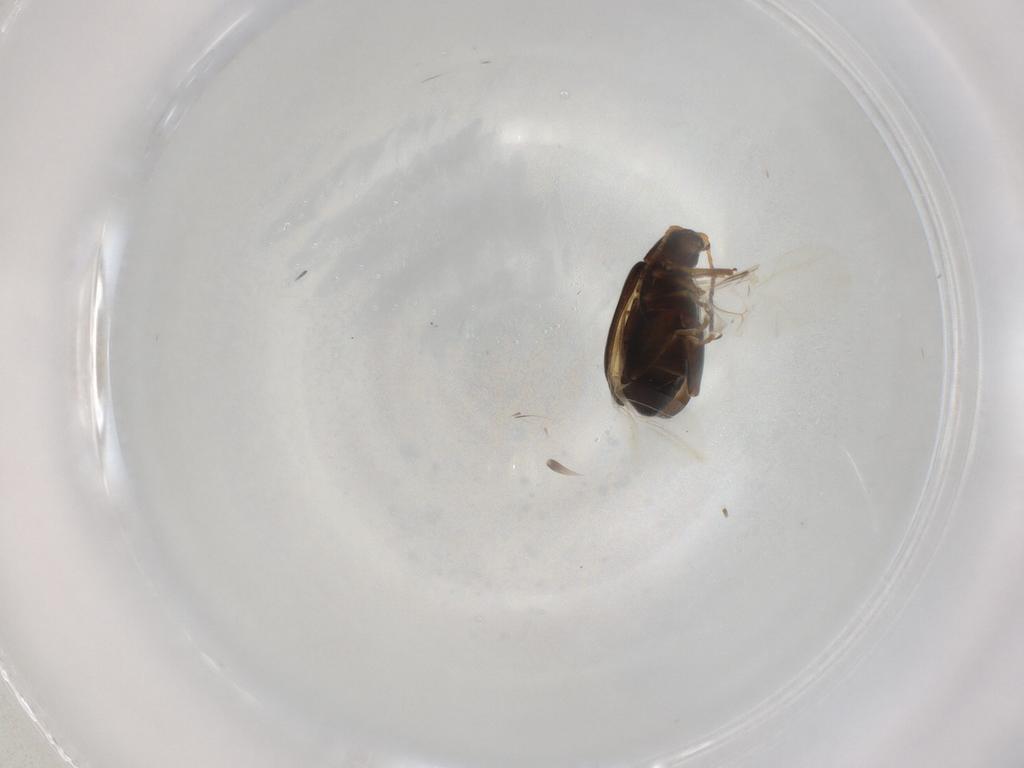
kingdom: Animalia
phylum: Arthropoda
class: Insecta
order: Coleoptera
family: Chrysomelidae
